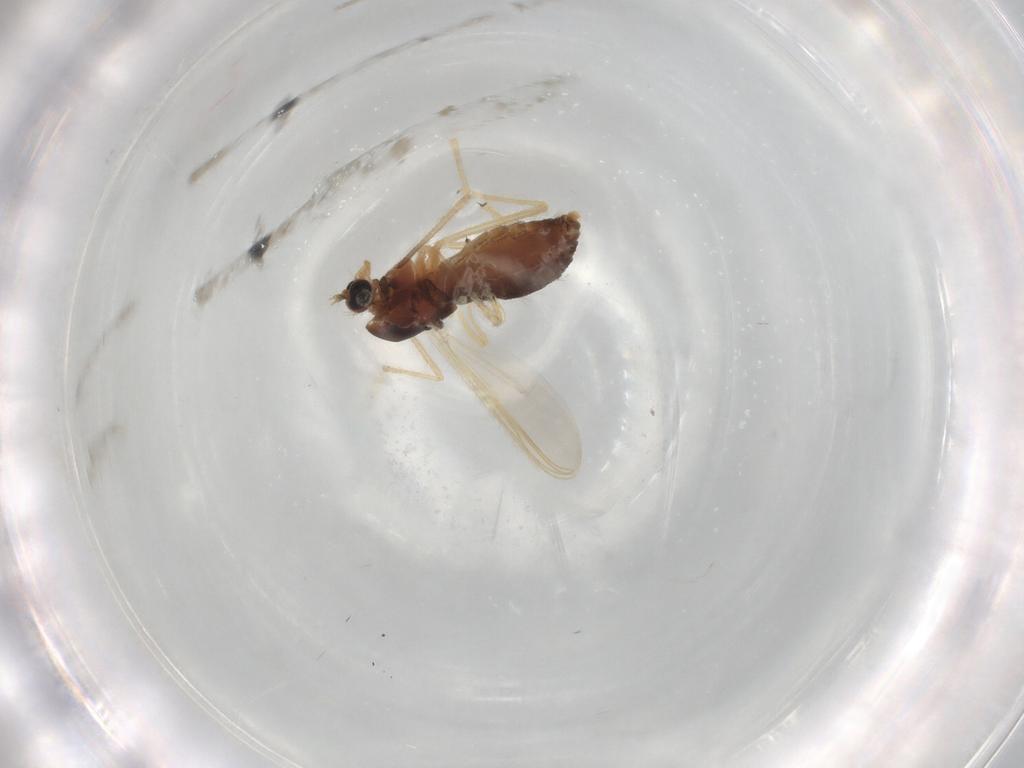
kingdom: Animalia
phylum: Arthropoda
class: Insecta
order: Diptera
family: Chironomidae
